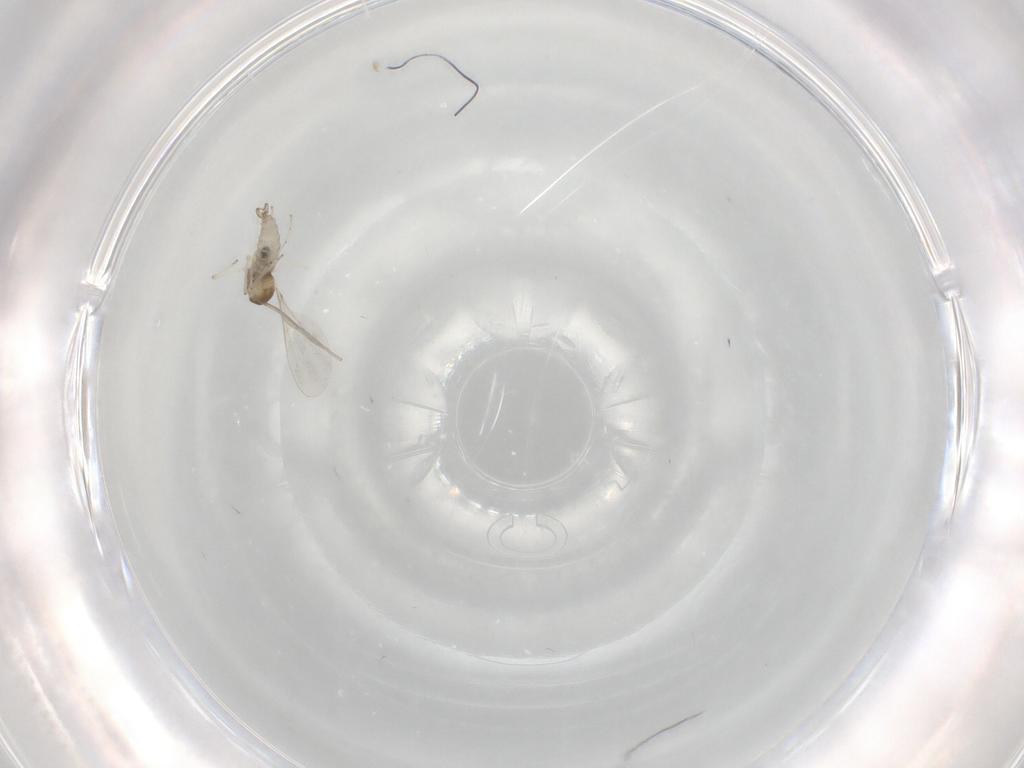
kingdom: Animalia
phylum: Arthropoda
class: Insecta
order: Diptera
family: Cecidomyiidae
